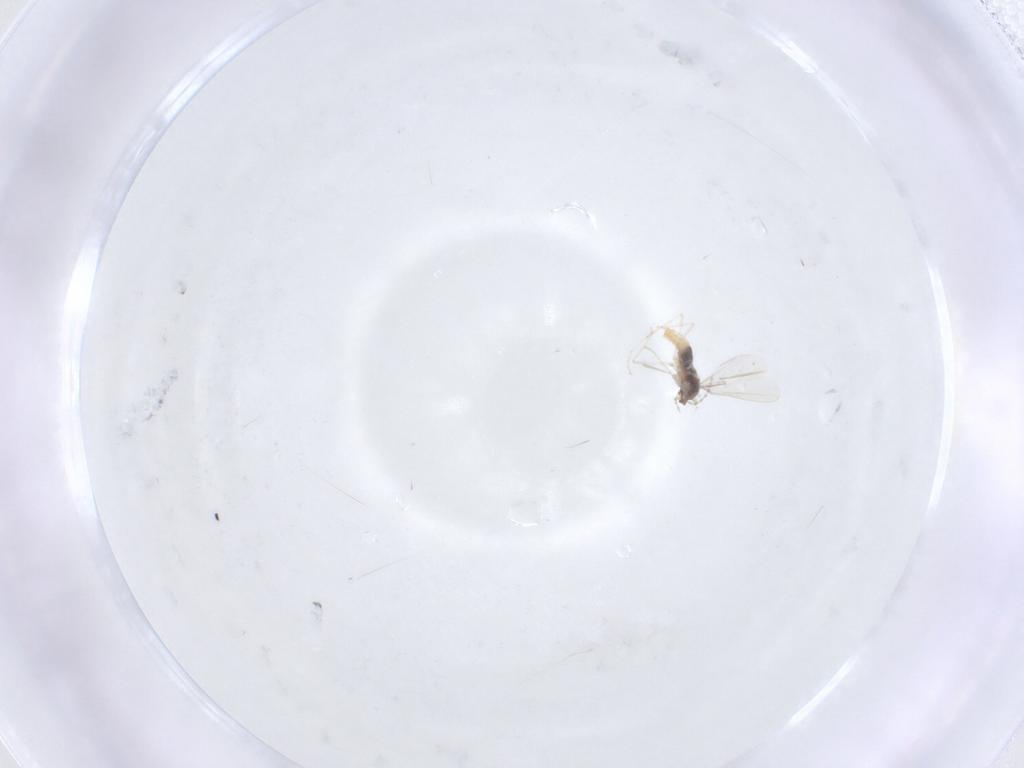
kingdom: Animalia
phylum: Arthropoda
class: Insecta
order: Diptera
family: Cecidomyiidae
